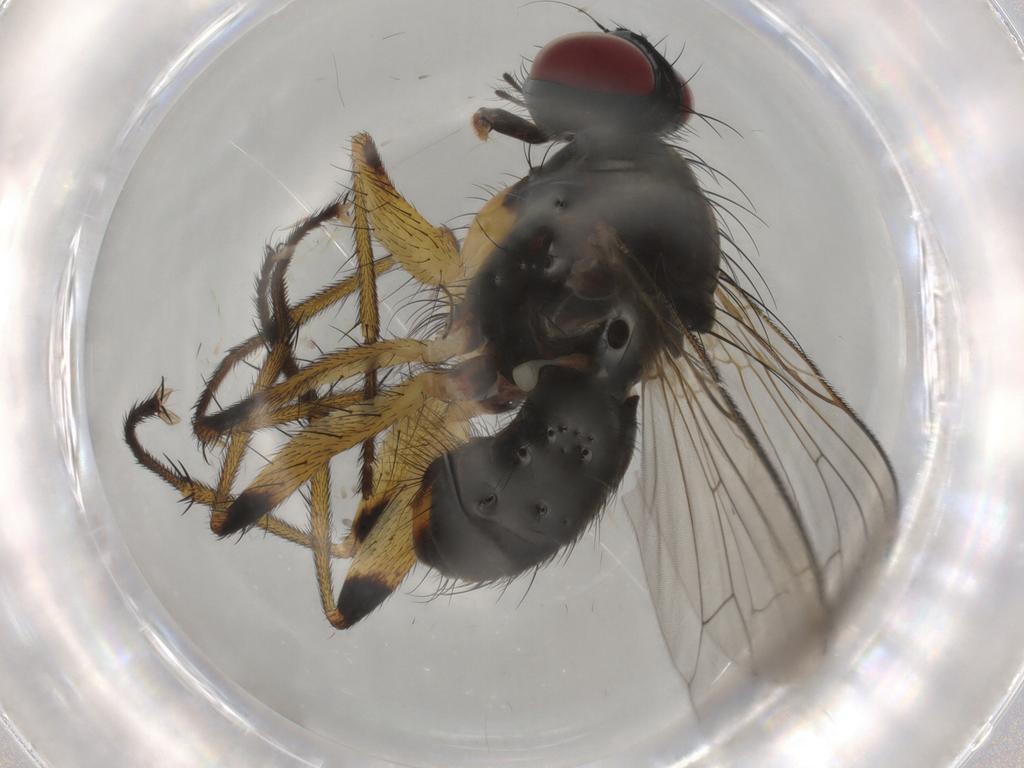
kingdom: Animalia
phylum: Arthropoda
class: Insecta
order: Diptera
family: Muscidae
